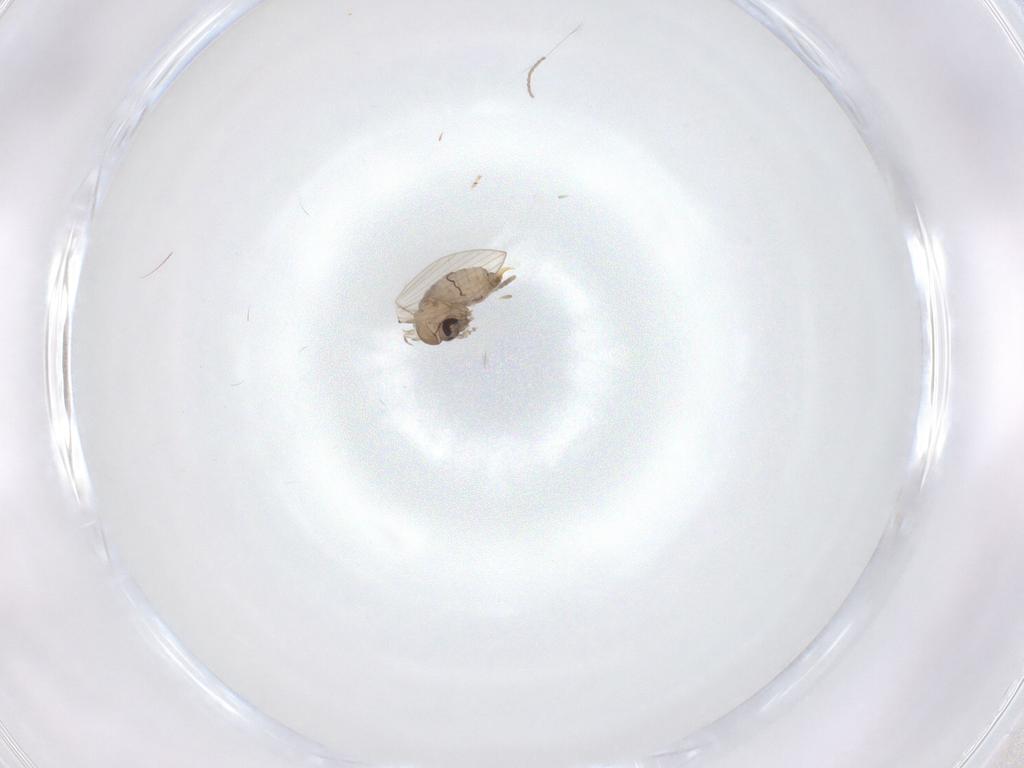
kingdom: Animalia
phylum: Arthropoda
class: Insecta
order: Diptera
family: Psychodidae
